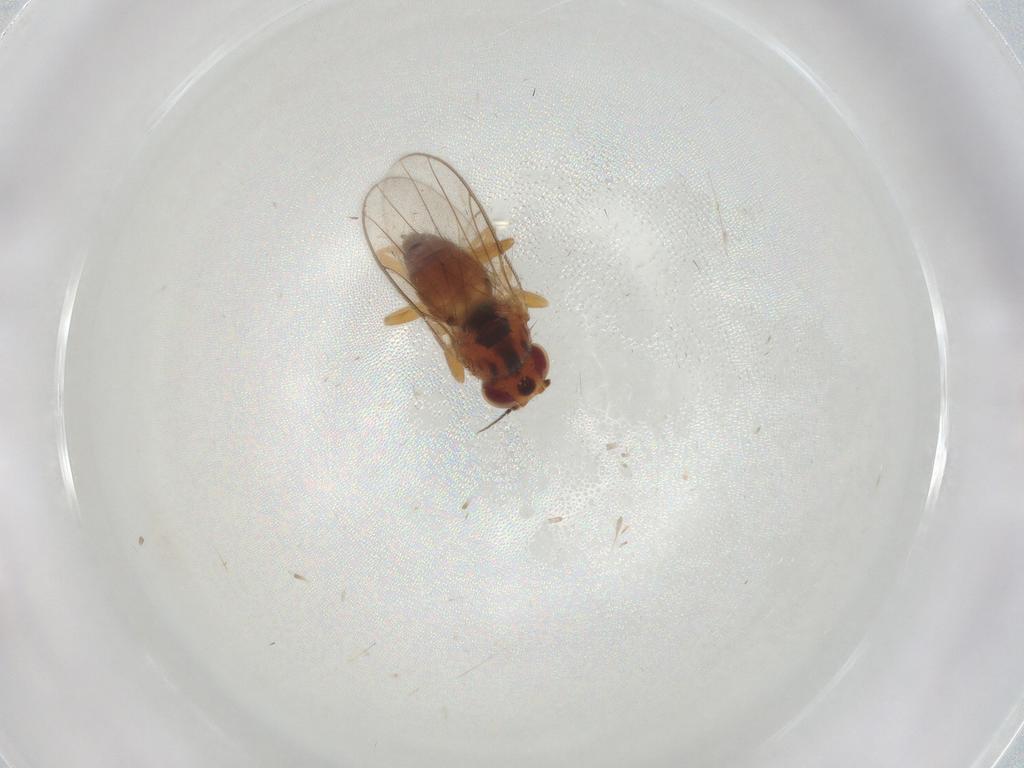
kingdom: Animalia
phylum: Arthropoda
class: Insecta
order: Diptera
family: Ceratopogonidae
